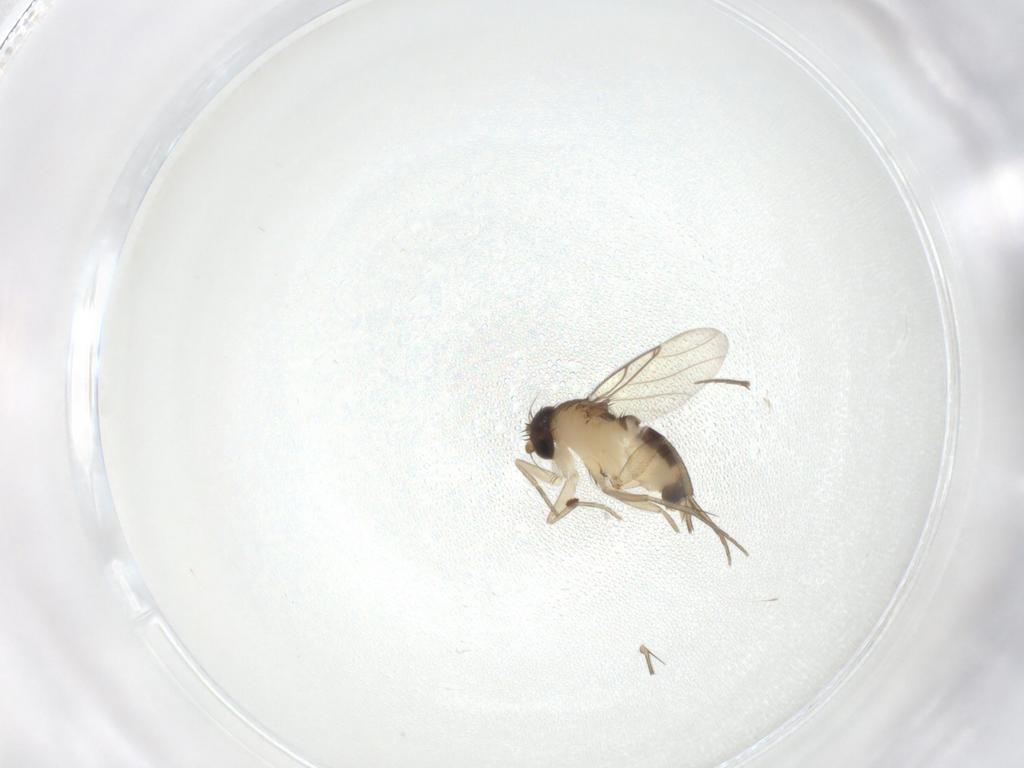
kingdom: Animalia
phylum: Arthropoda
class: Insecta
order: Diptera
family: Phoridae
